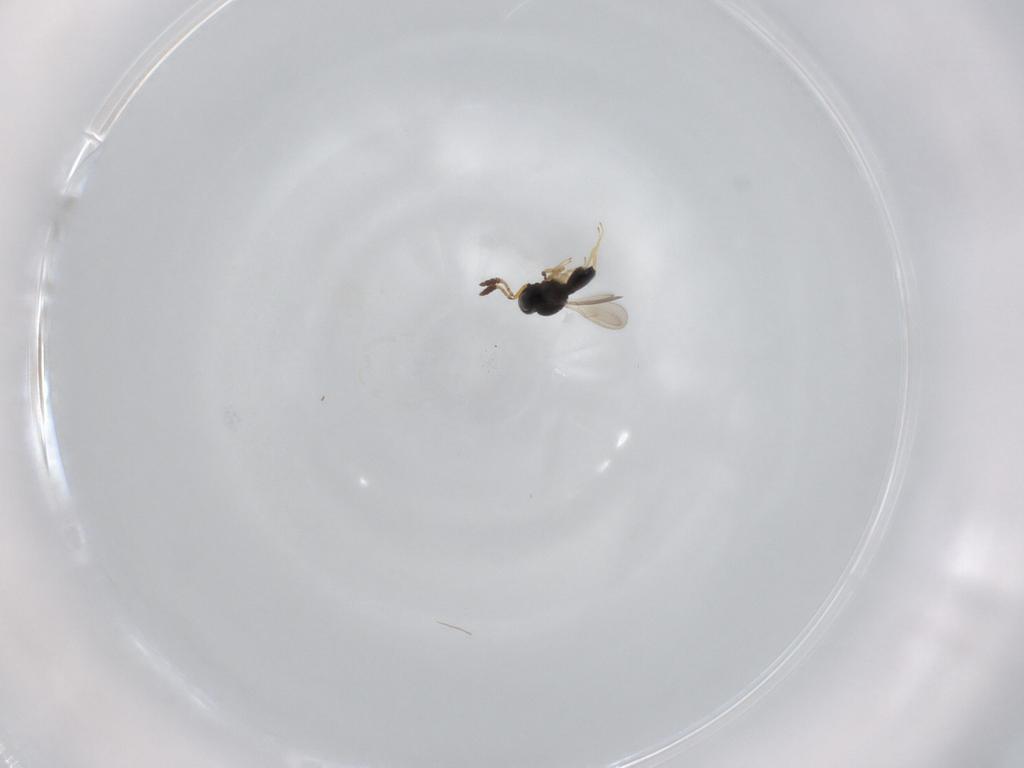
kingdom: Animalia
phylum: Arthropoda
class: Insecta
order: Hymenoptera
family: Scelionidae
